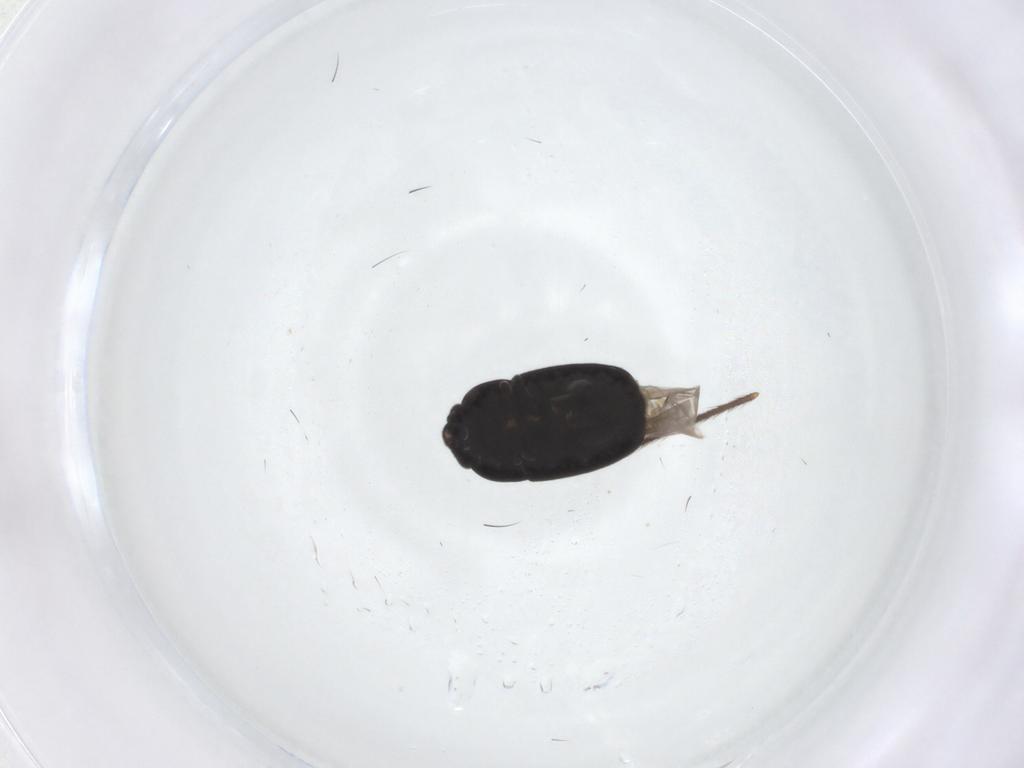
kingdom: Animalia
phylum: Arthropoda
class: Insecta
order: Coleoptera
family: Nitidulidae
